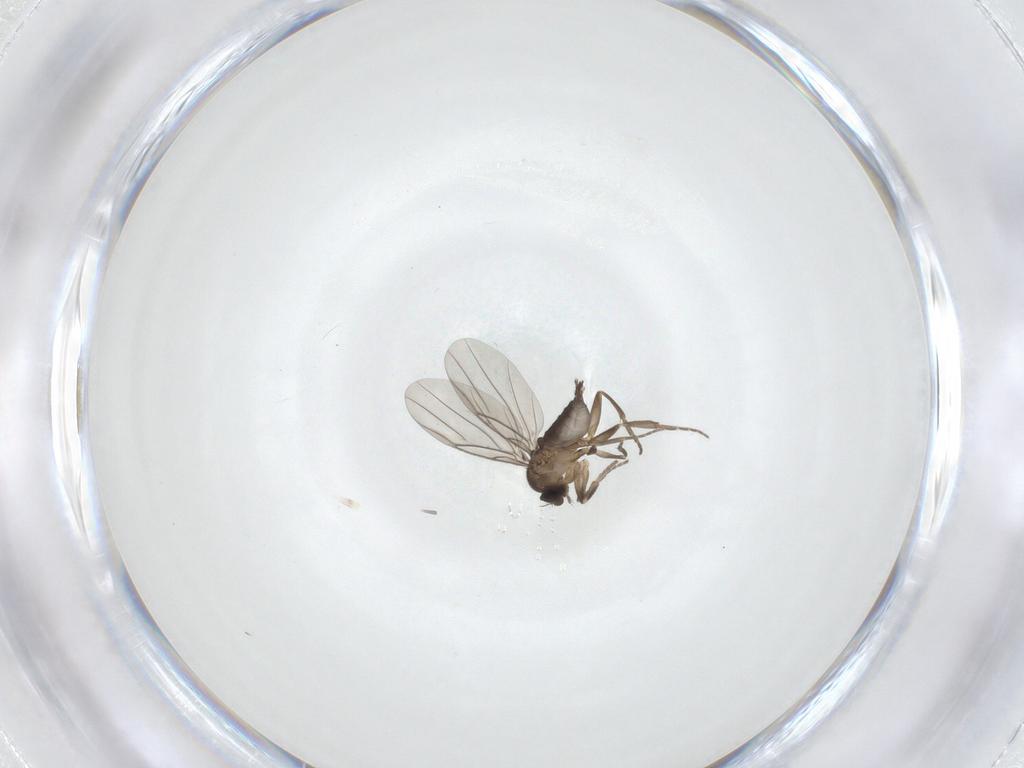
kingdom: Animalia
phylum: Arthropoda
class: Insecta
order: Diptera
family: Phoridae
